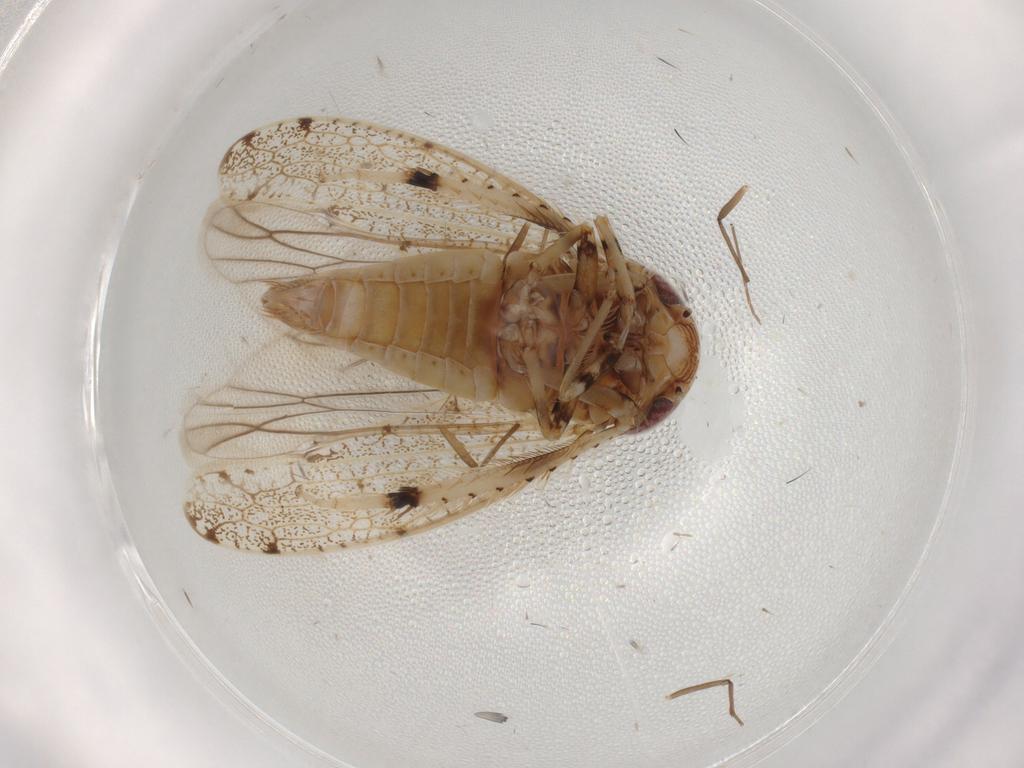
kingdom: Animalia
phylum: Arthropoda
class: Insecta
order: Hemiptera
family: Cicadellidae
